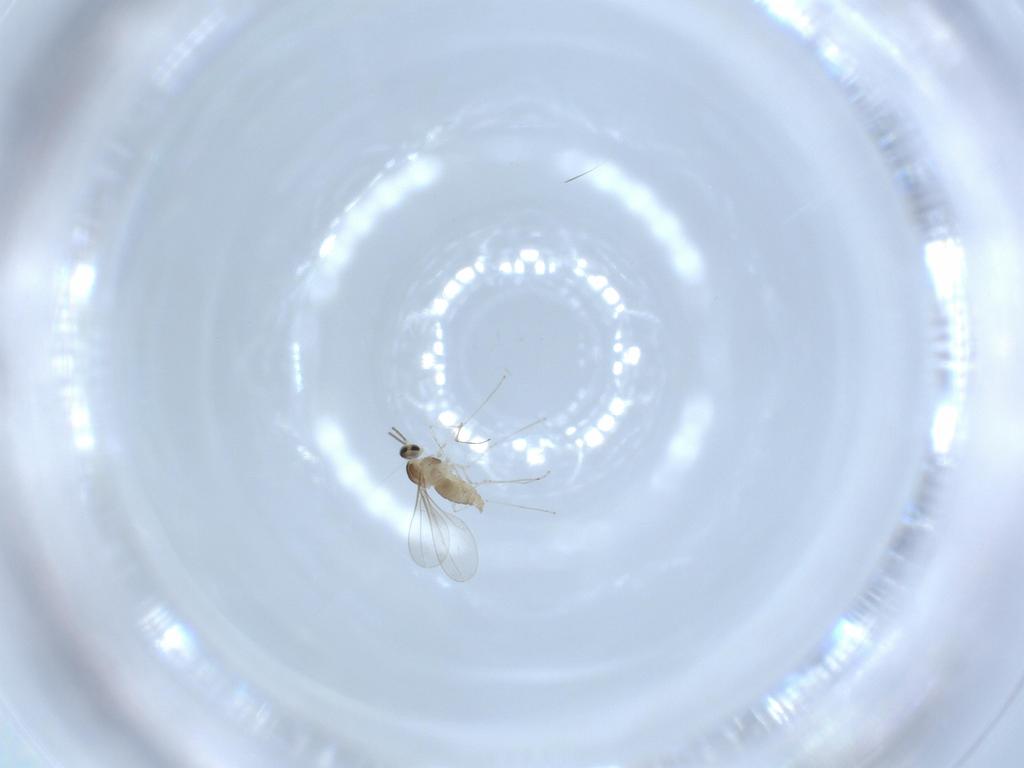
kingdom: Animalia
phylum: Arthropoda
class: Insecta
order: Diptera
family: Cecidomyiidae
